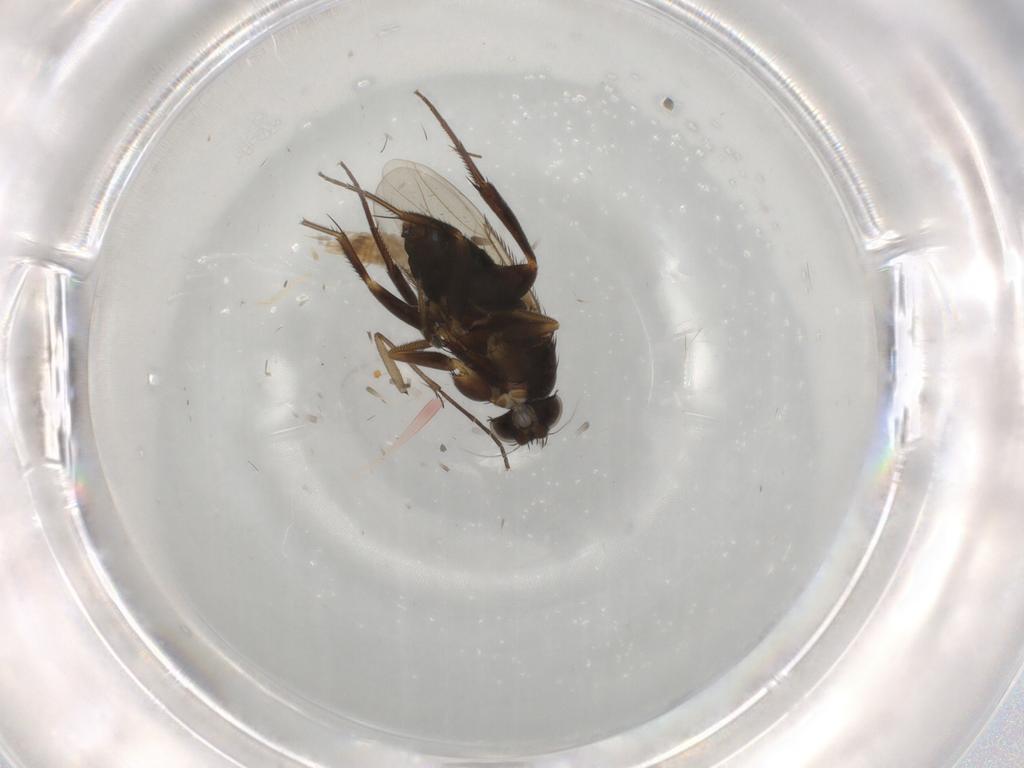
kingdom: Animalia
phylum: Arthropoda
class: Insecta
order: Diptera
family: Phoridae
